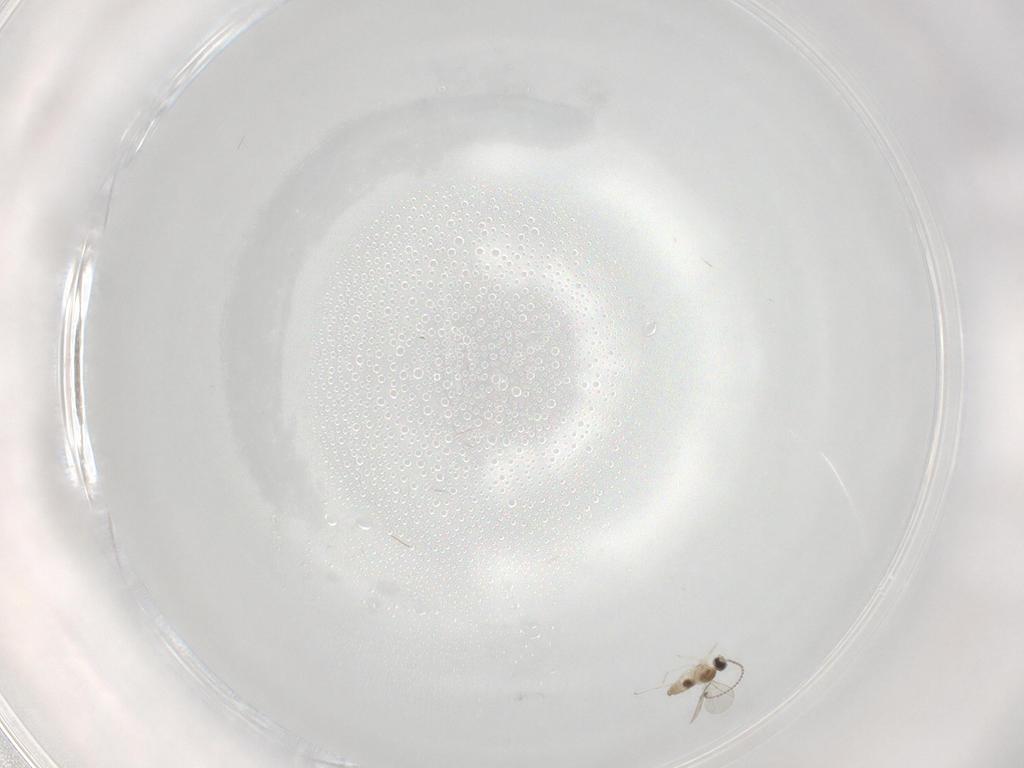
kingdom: Animalia
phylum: Arthropoda
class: Insecta
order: Diptera
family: Cecidomyiidae
